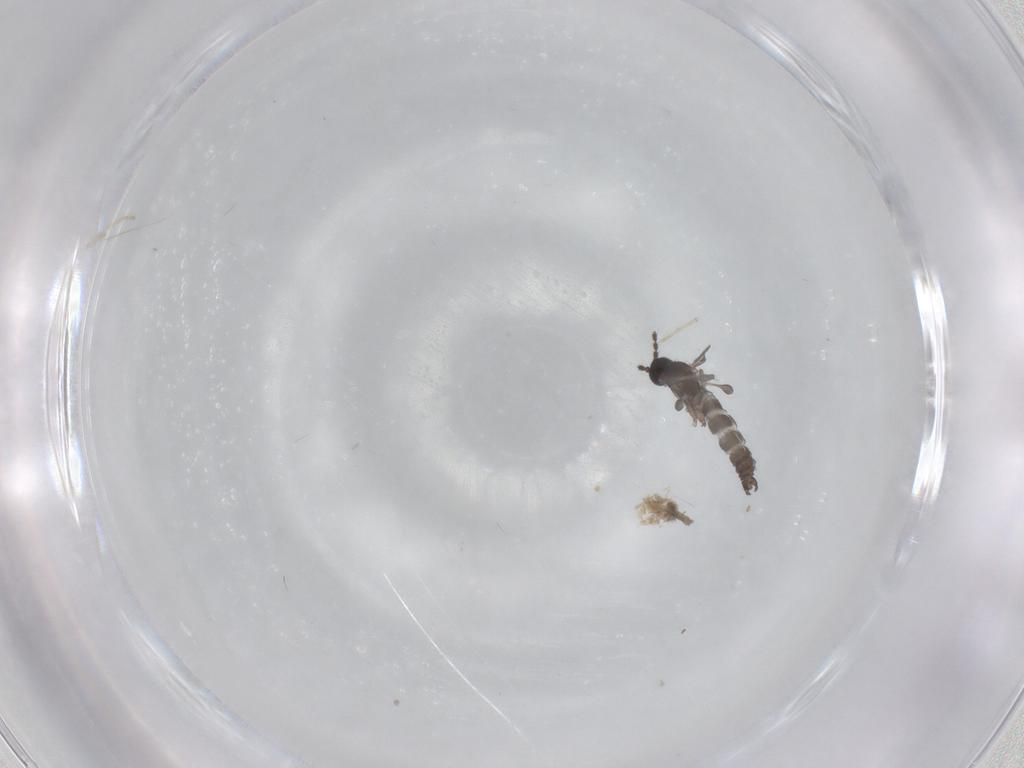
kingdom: Animalia
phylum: Arthropoda
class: Insecta
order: Diptera
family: Chironomidae
